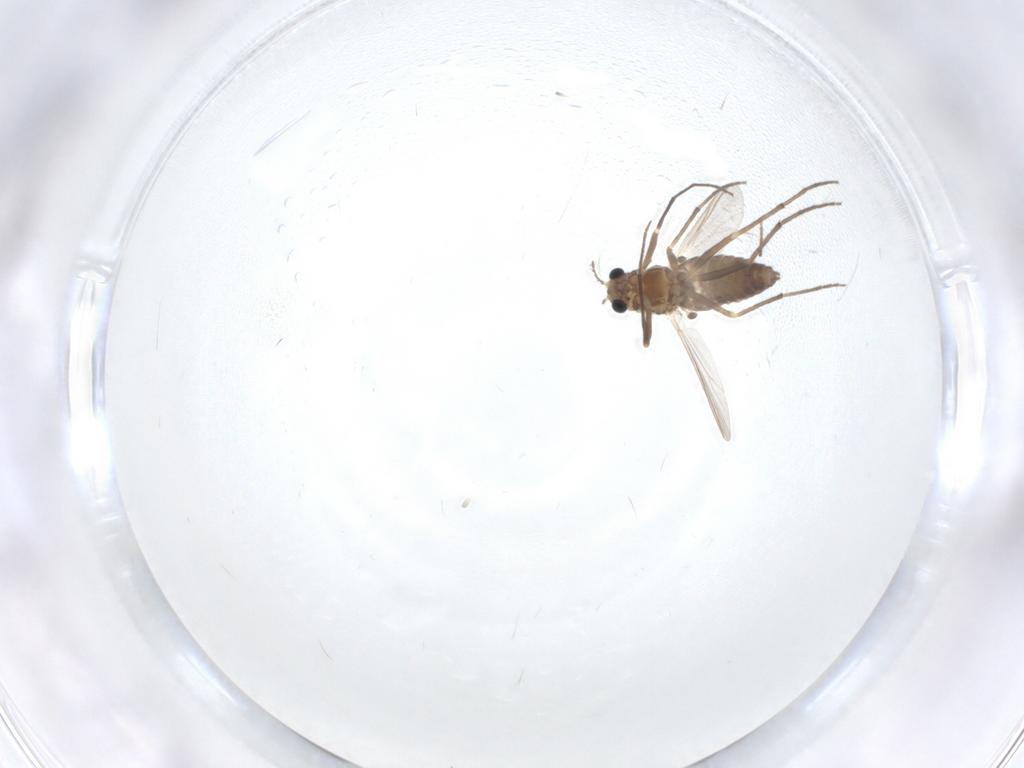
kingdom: Animalia
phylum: Arthropoda
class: Insecta
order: Diptera
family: Chironomidae
